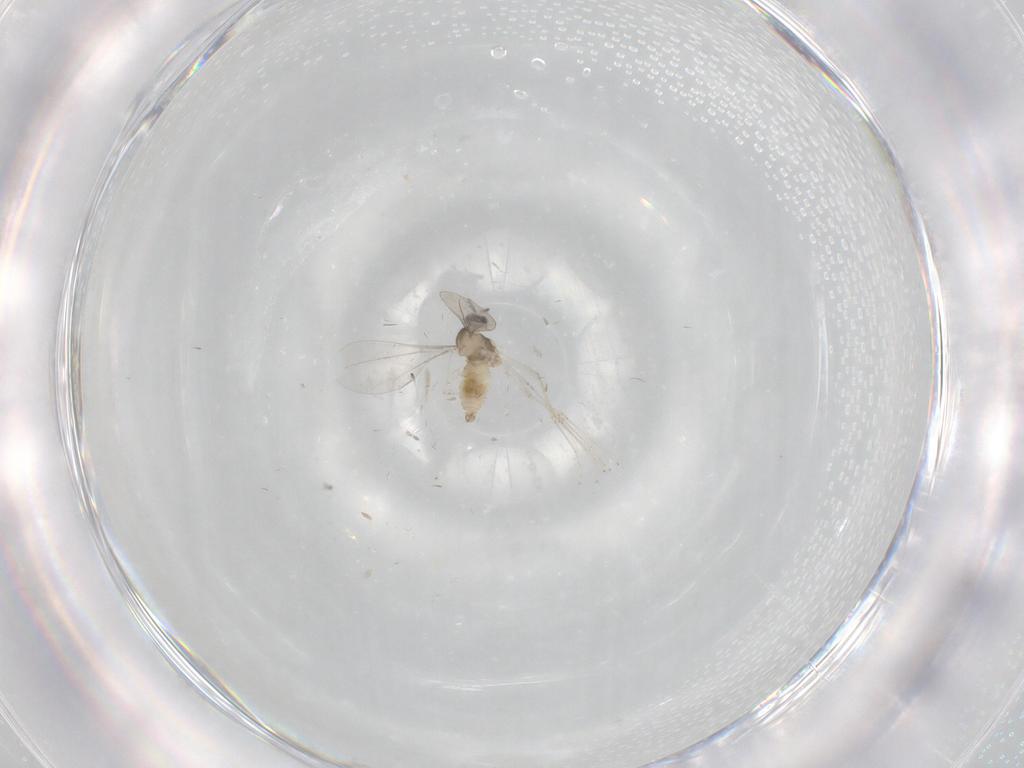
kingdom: Animalia
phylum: Arthropoda
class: Insecta
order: Diptera
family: Cecidomyiidae
